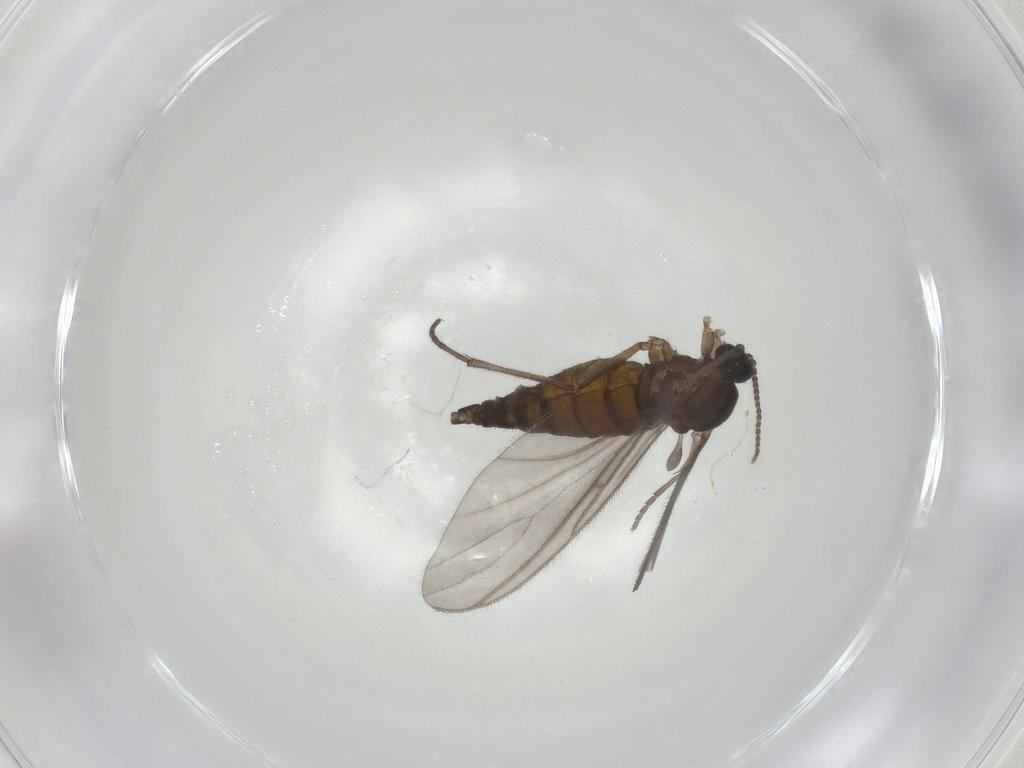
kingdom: Animalia
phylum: Arthropoda
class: Insecta
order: Diptera
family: Sciaridae
